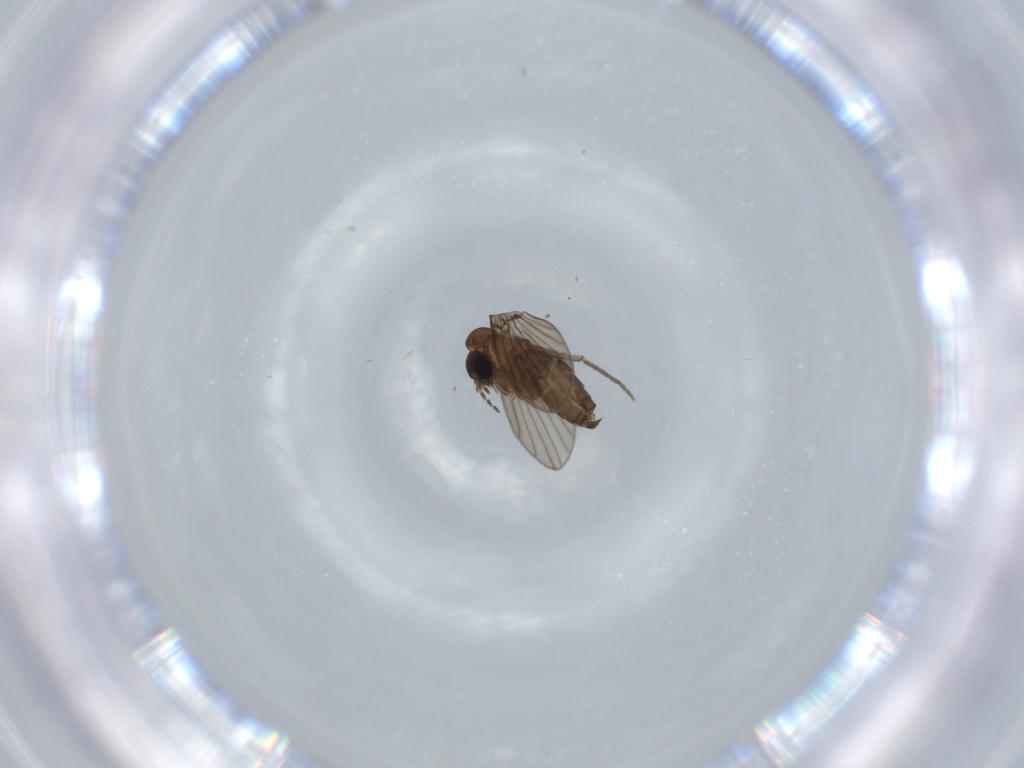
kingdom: Animalia
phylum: Arthropoda
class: Insecta
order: Diptera
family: Psychodidae
